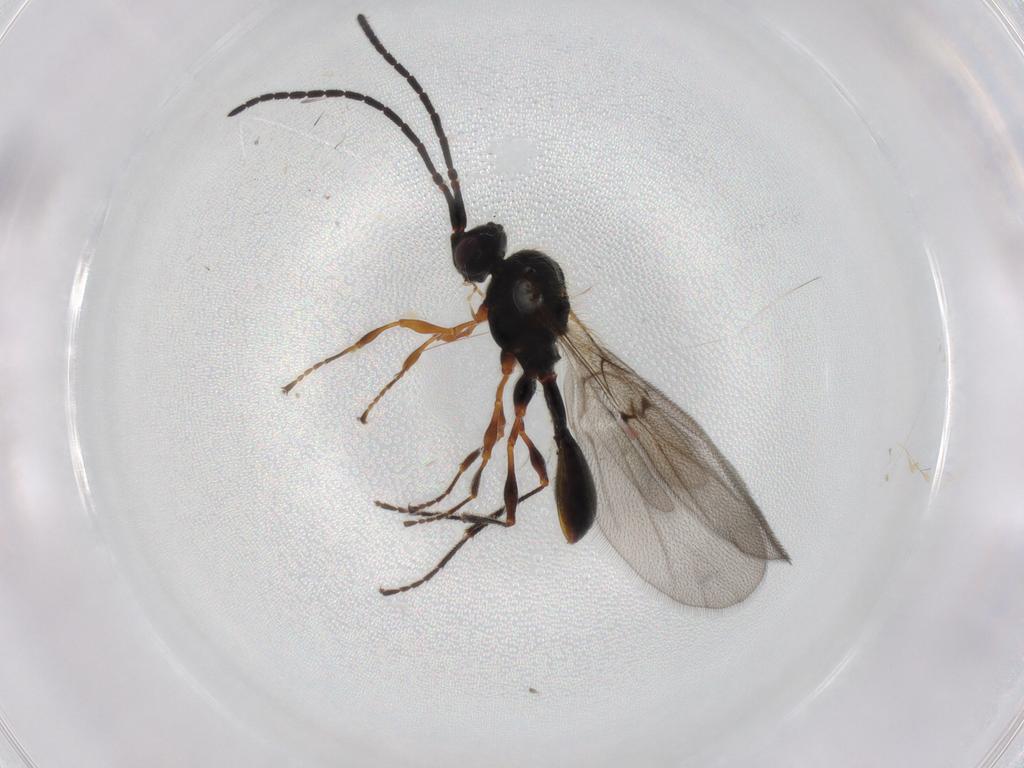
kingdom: Animalia
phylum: Arthropoda
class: Insecta
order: Hymenoptera
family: Diapriidae
